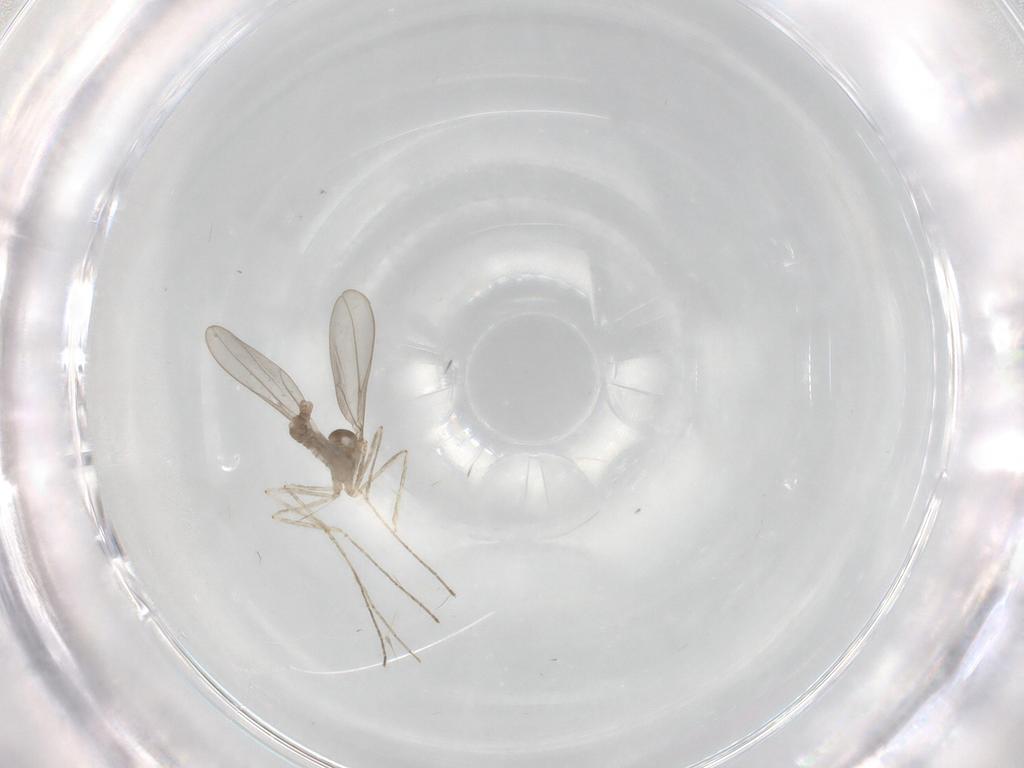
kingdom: Animalia
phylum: Arthropoda
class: Insecta
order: Diptera
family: Cecidomyiidae
